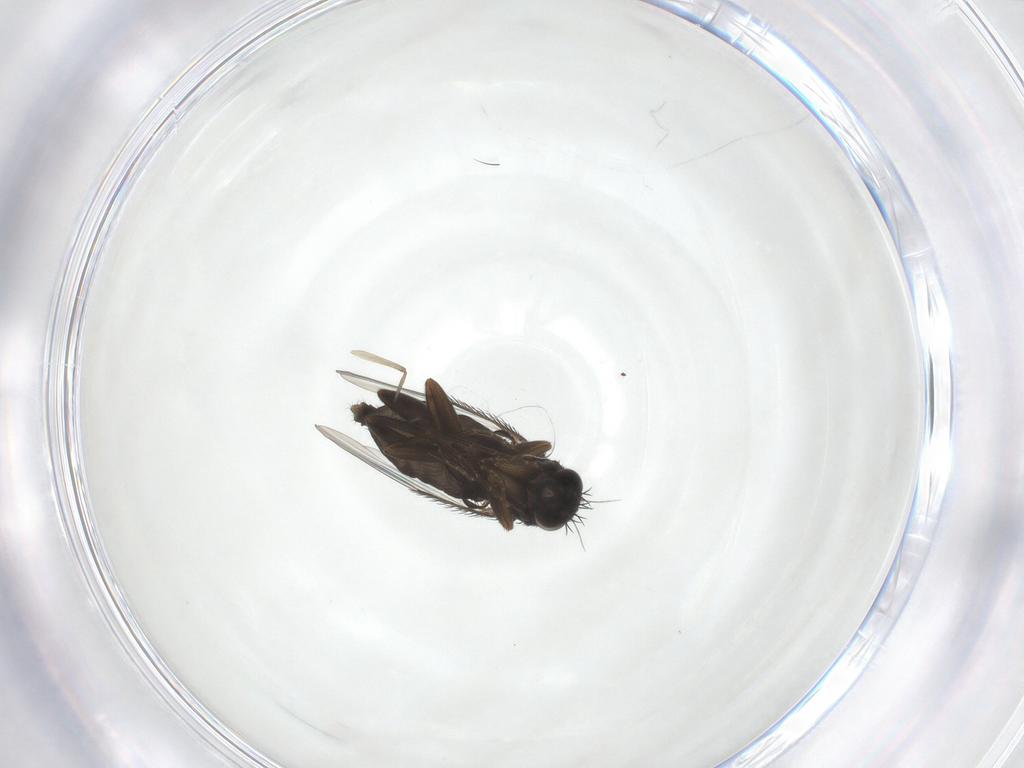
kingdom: Animalia
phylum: Arthropoda
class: Insecta
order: Diptera
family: Phoridae
